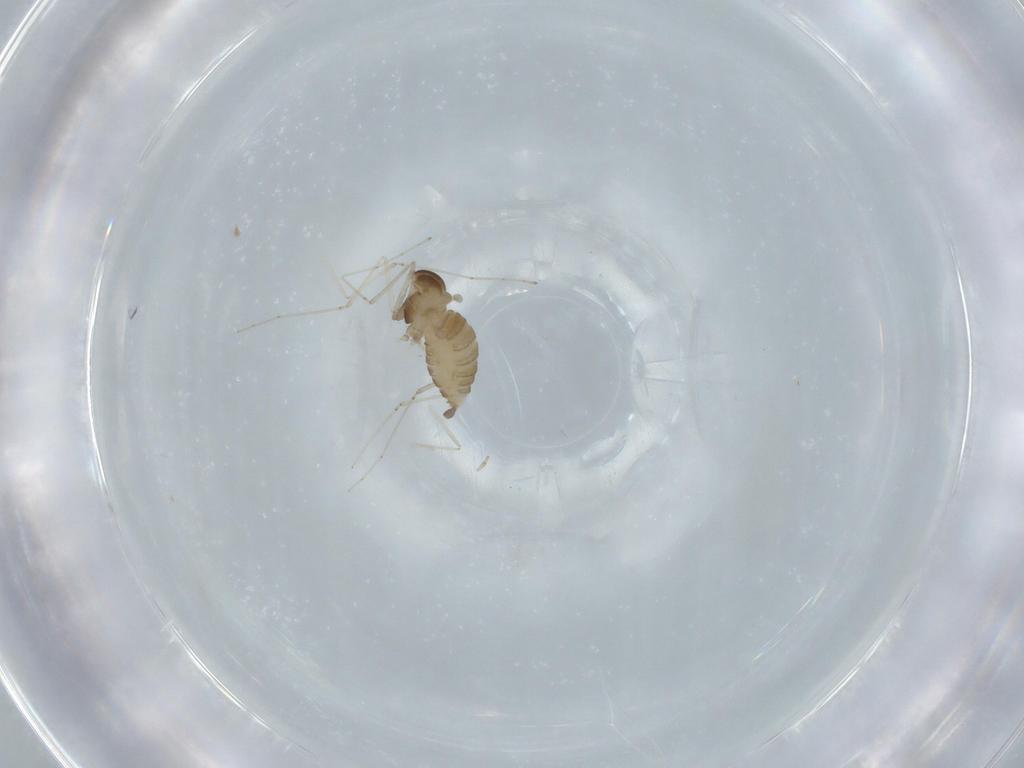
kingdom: Animalia
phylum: Arthropoda
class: Insecta
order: Diptera
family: Cecidomyiidae
